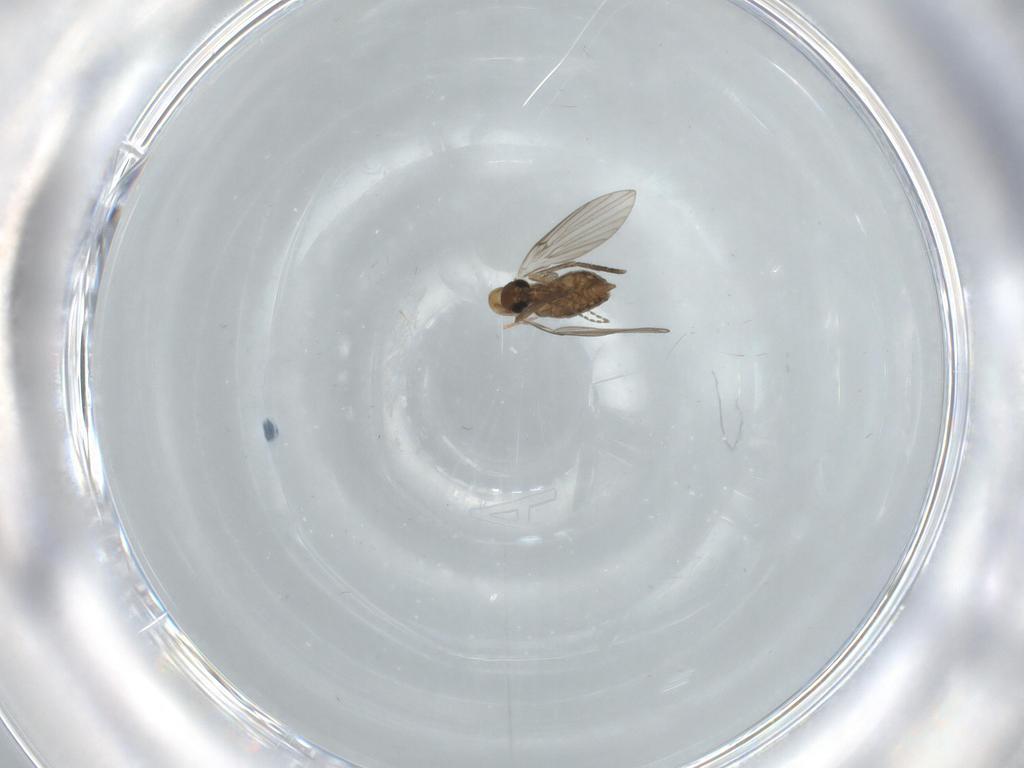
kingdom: Animalia
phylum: Arthropoda
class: Insecta
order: Diptera
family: Psychodidae
